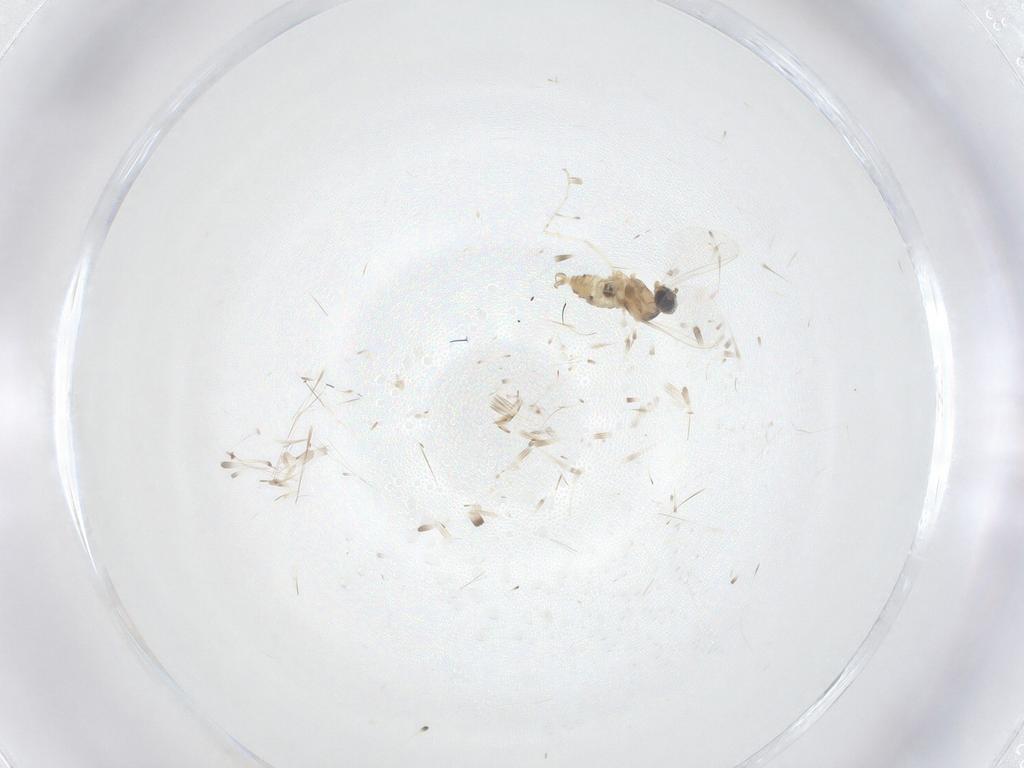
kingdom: Animalia
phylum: Arthropoda
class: Insecta
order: Diptera
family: Cecidomyiidae
